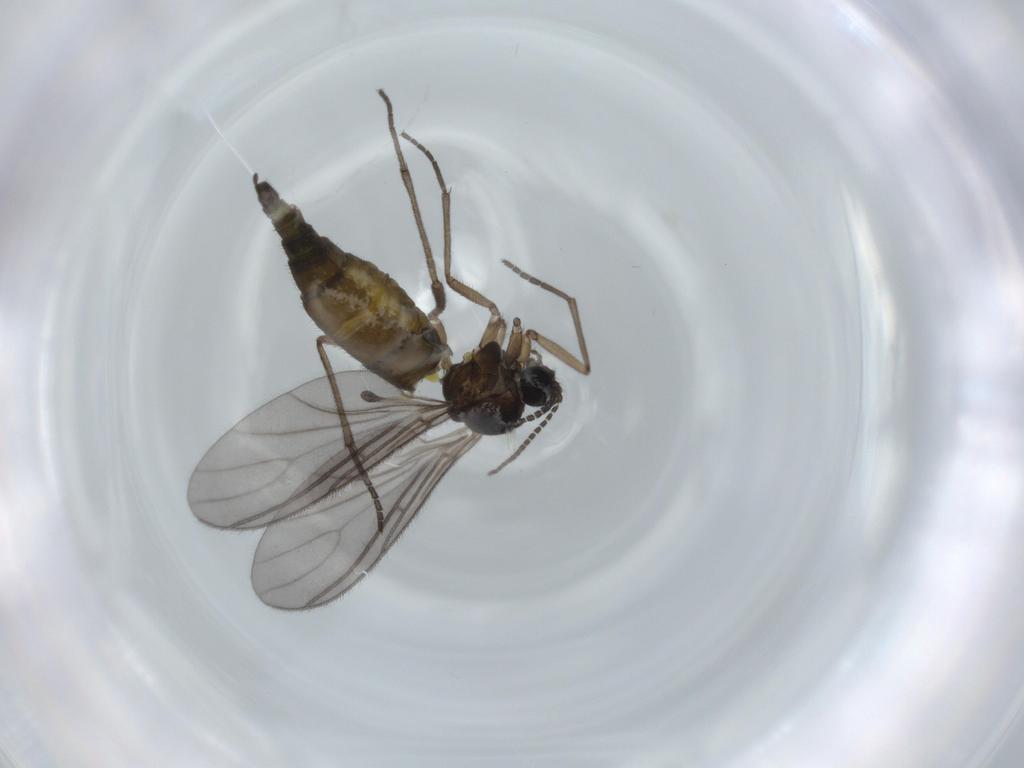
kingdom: Animalia
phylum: Arthropoda
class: Insecta
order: Diptera
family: Sciaridae
